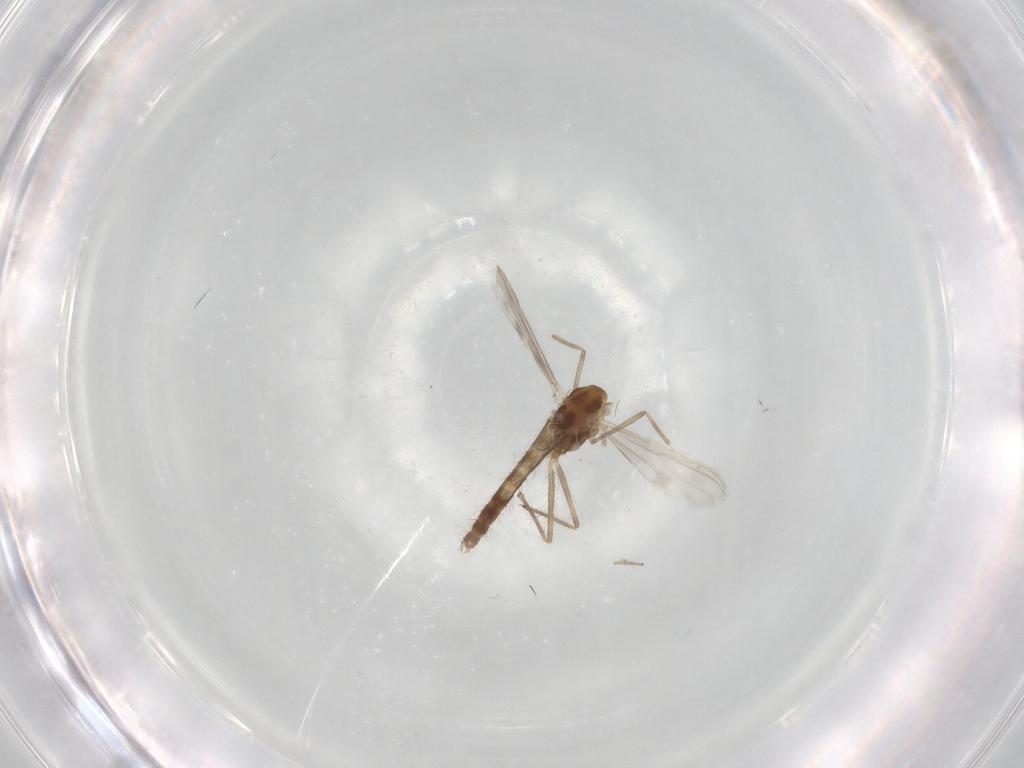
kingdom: Animalia
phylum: Arthropoda
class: Insecta
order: Diptera
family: Chironomidae
